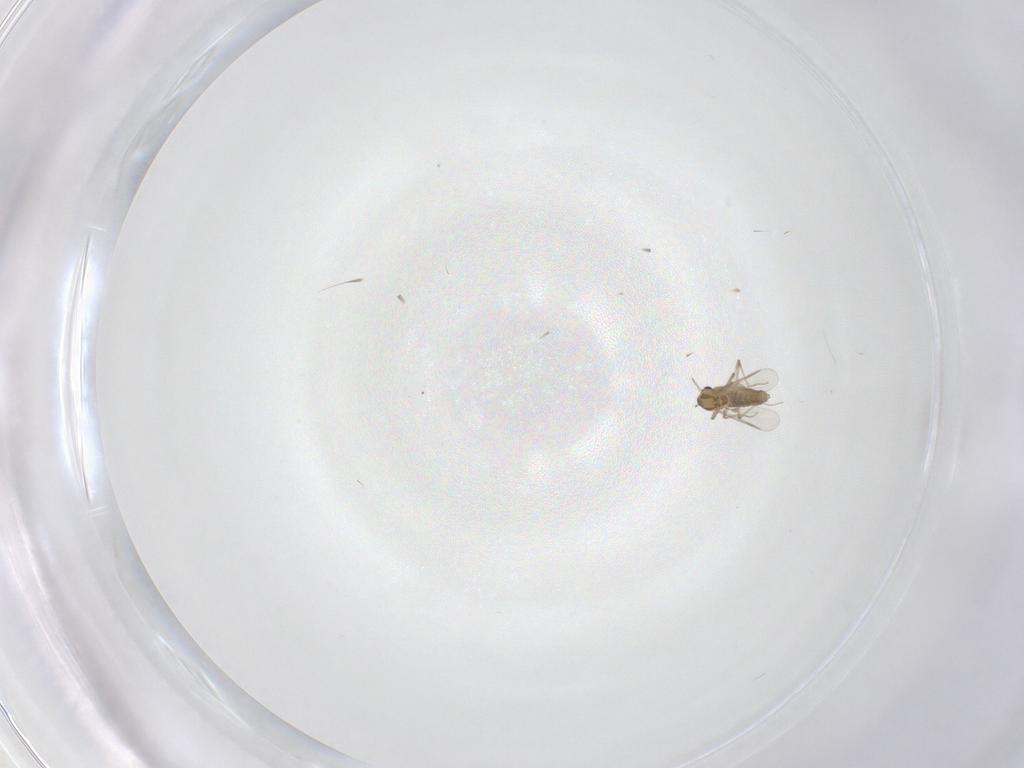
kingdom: Animalia
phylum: Arthropoda
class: Insecta
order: Diptera
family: Chironomidae
